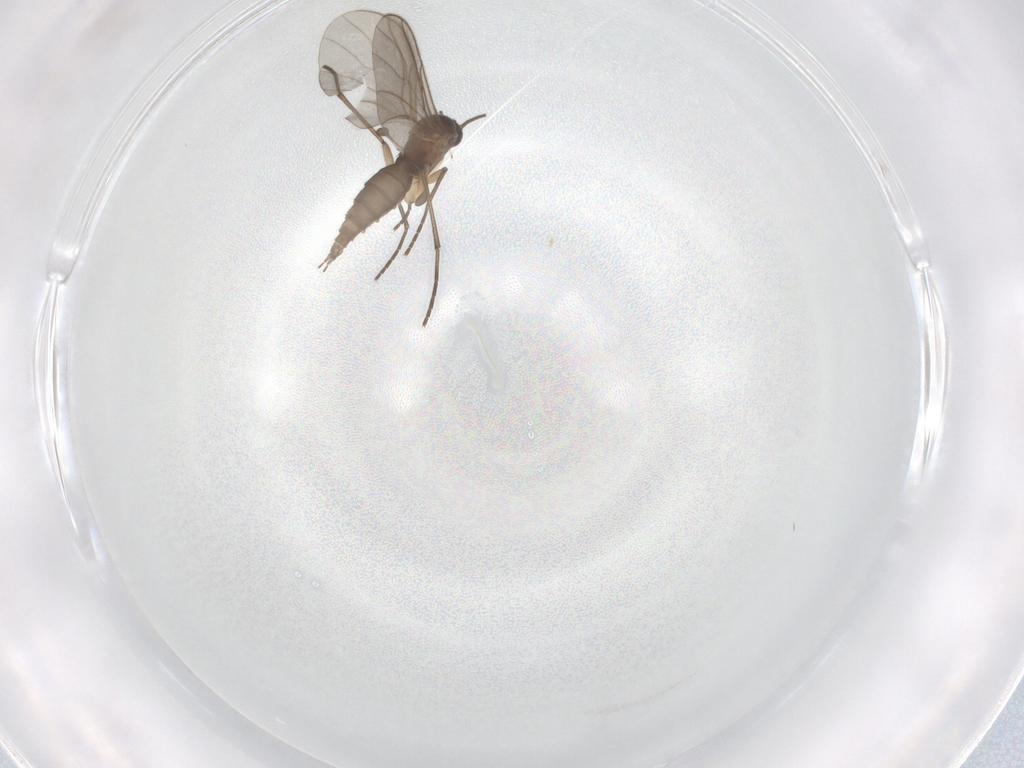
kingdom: Animalia
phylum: Arthropoda
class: Insecta
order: Diptera
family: Sciaridae
